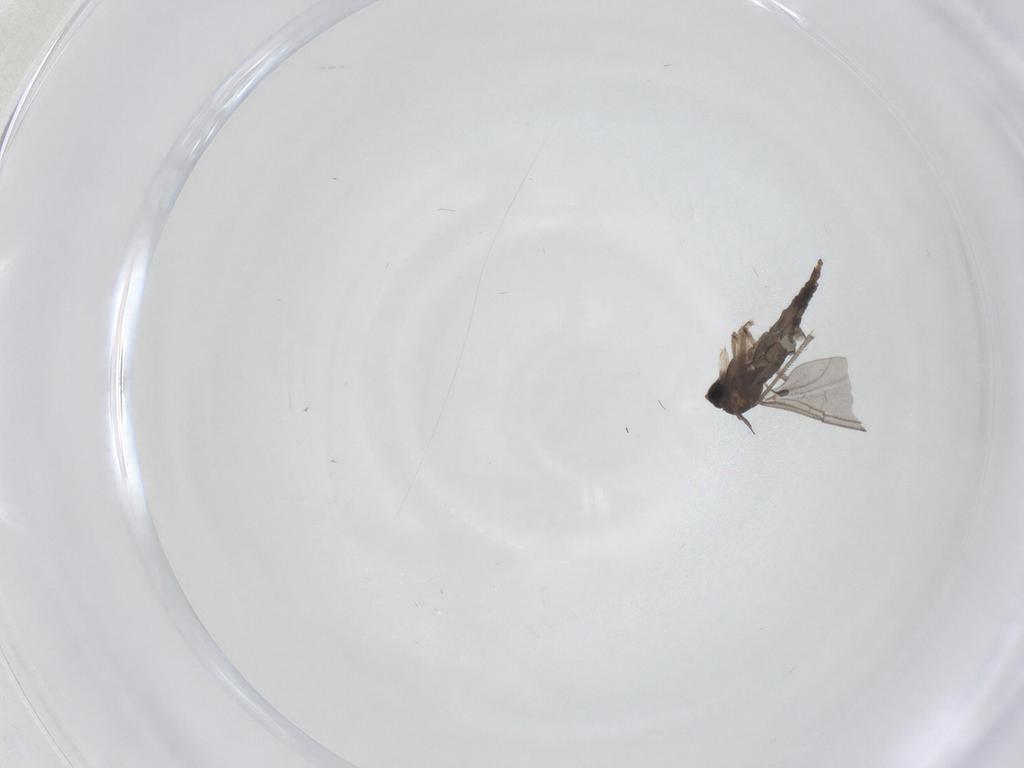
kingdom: Animalia
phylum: Arthropoda
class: Insecta
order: Diptera
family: Sciaridae
